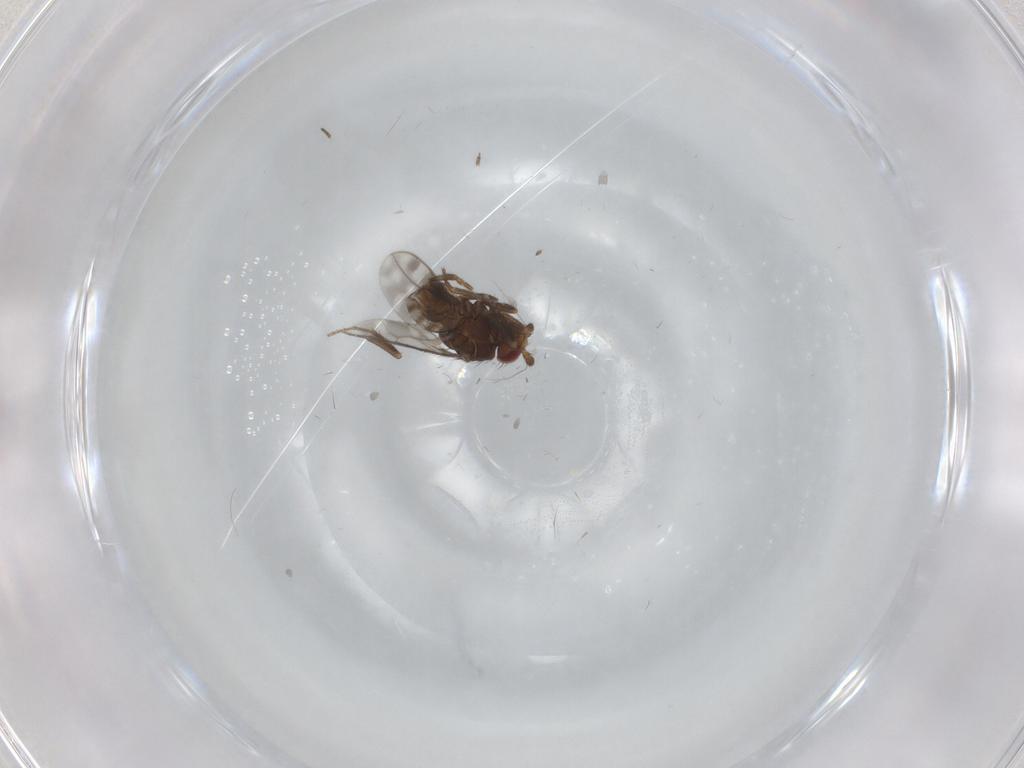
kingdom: Animalia
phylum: Arthropoda
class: Insecta
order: Diptera
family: Sphaeroceridae
